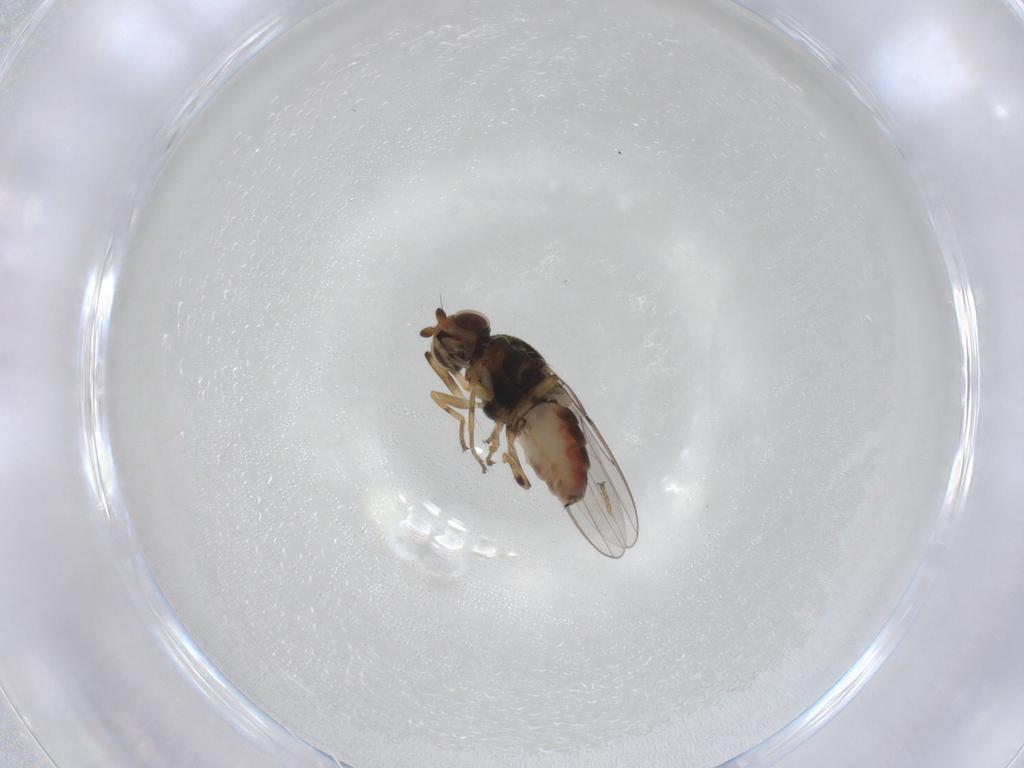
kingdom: Animalia
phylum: Arthropoda
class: Insecta
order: Diptera
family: Chloropidae
